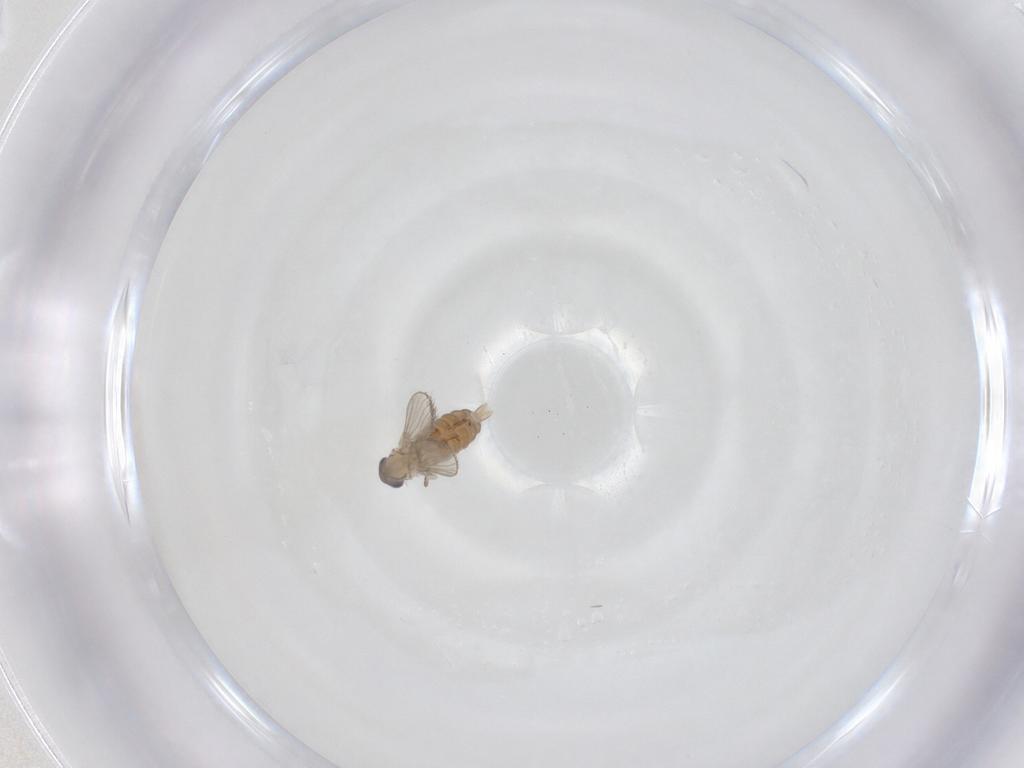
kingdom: Animalia
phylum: Arthropoda
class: Insecta
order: Diptera
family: Psychodidae
